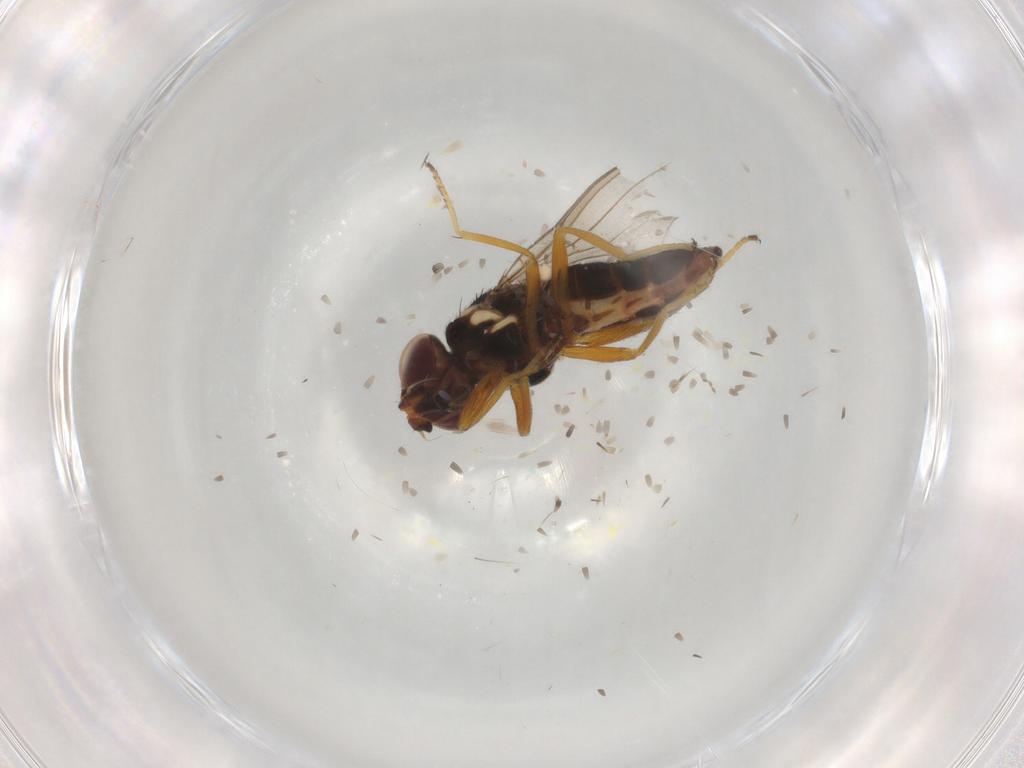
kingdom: Animalia
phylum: Arthropoda
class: Insecta
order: Diptera
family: Chloropidae
